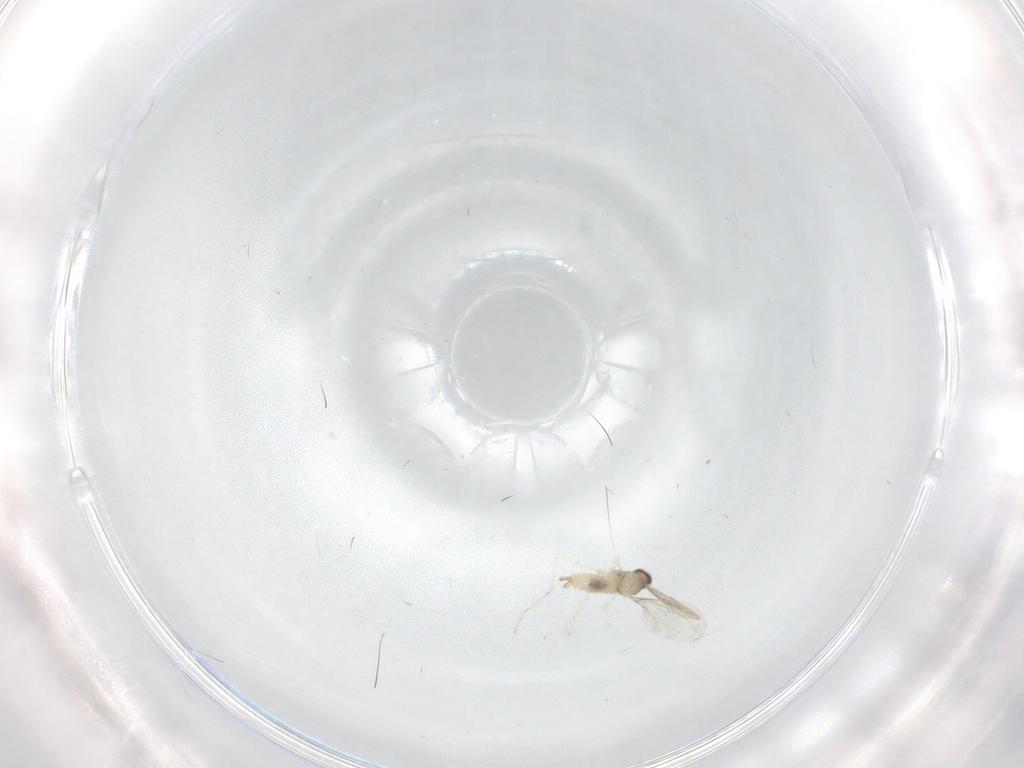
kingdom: Animalia
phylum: Arthropoda
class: Insecta
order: Diptera
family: Cecidomyiidae
